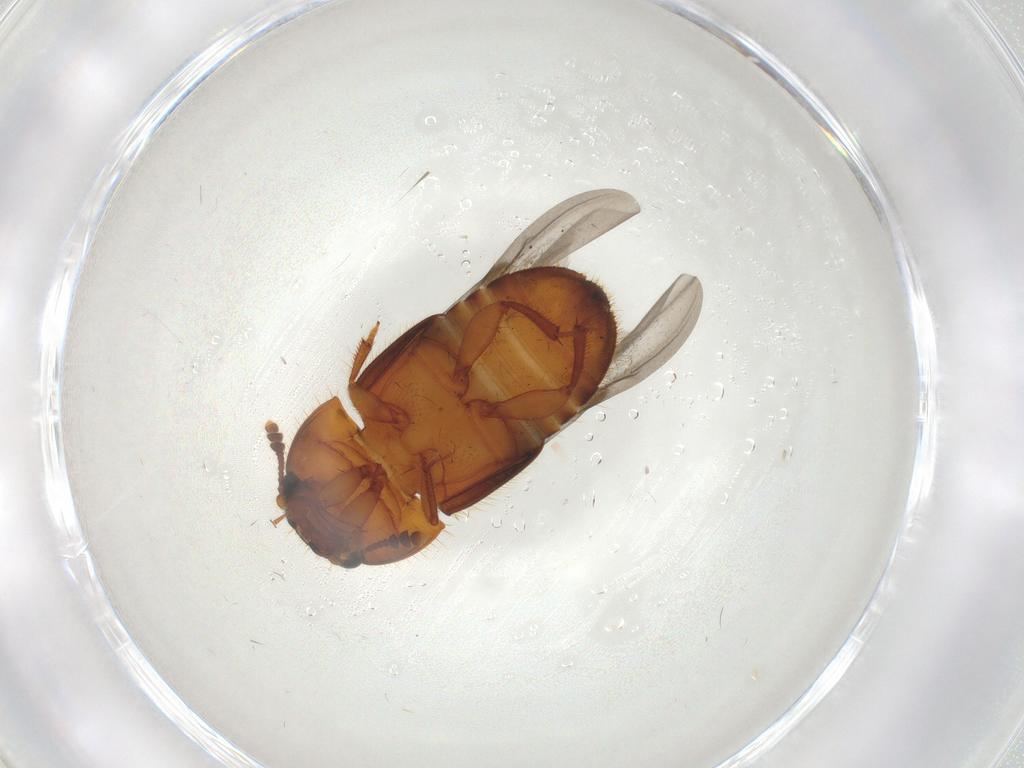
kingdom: Animalia
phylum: Arthropoda
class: Insecta
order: Coleoptera
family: Nitidulidae
